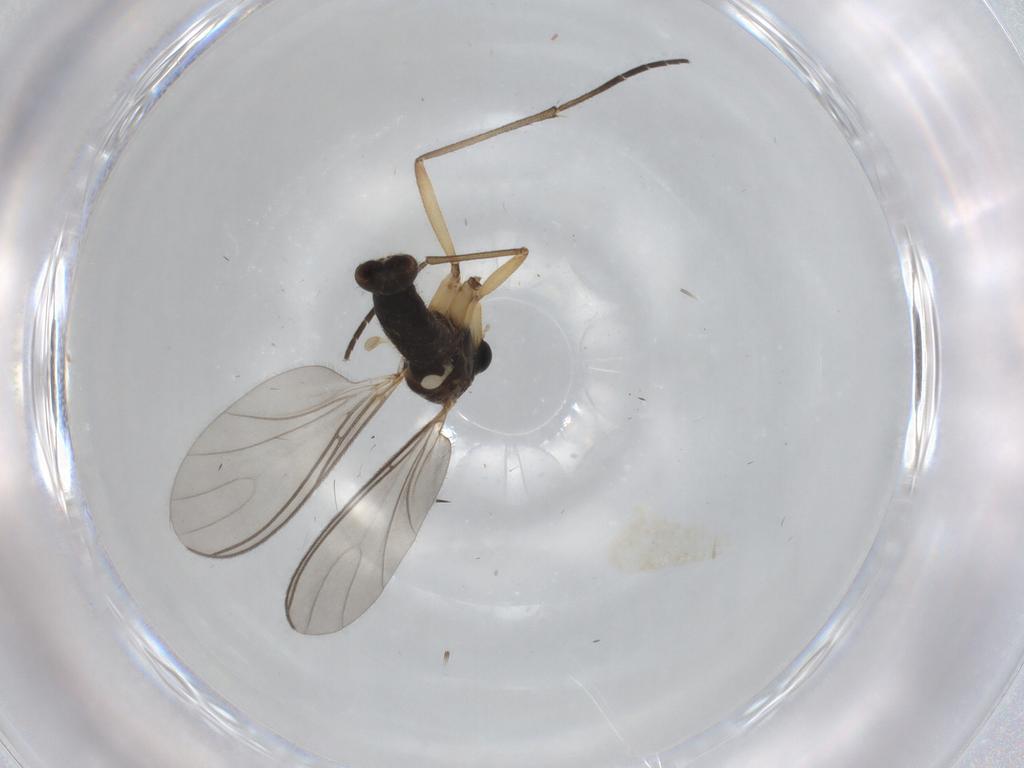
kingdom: Animalia
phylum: Arthropoda
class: Insecta
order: Diptera
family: Sciaridae
